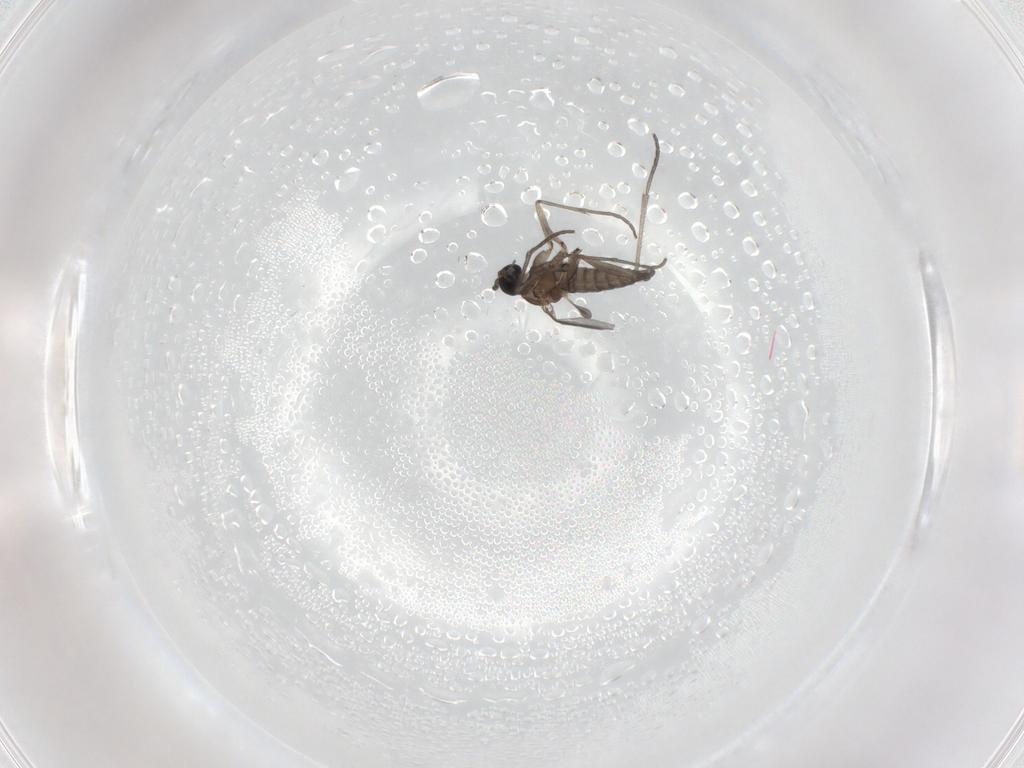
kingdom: Animalia
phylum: Arthropoda
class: Insecta
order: Diptera
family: Sciaridae
